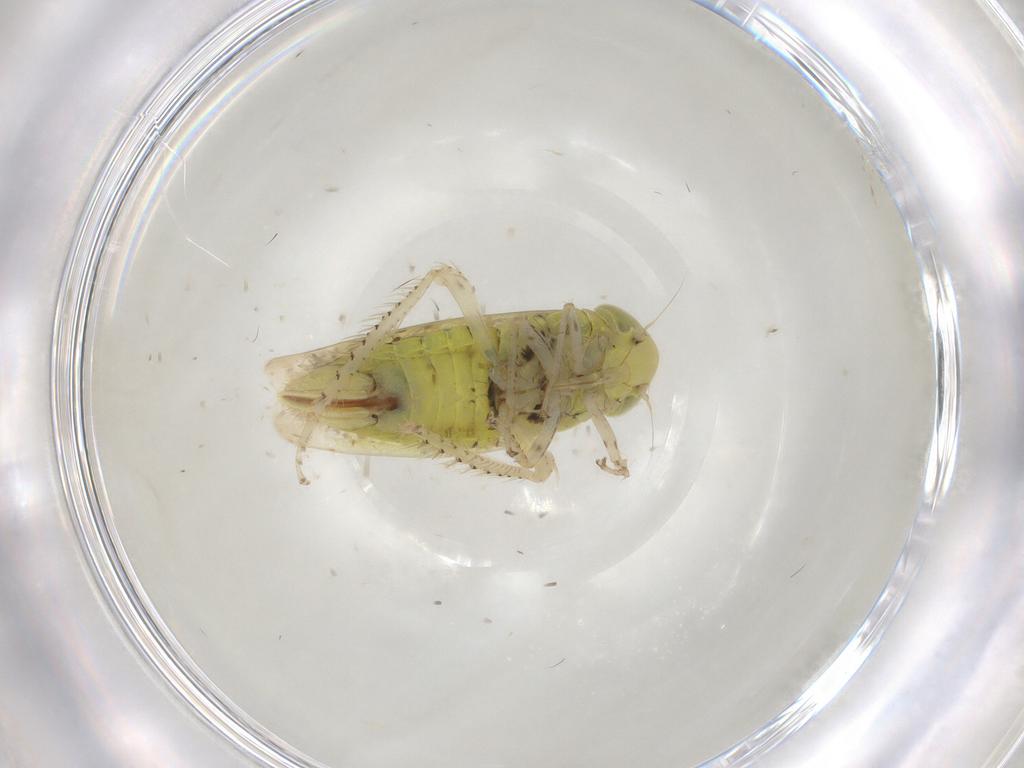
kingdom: Animalia
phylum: Arthropoda
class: Insecta
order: Hemiptera
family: Cicadellidae
